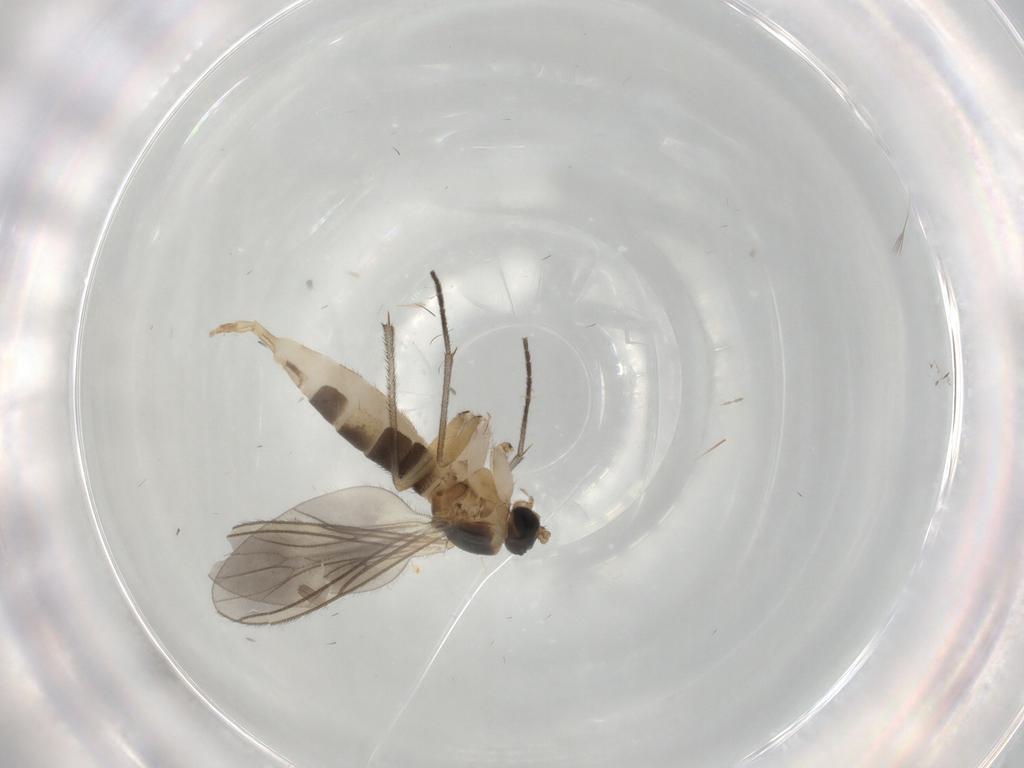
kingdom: Animalia
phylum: Arthropoda
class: Insecta
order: Diptera
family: Sciaridae
